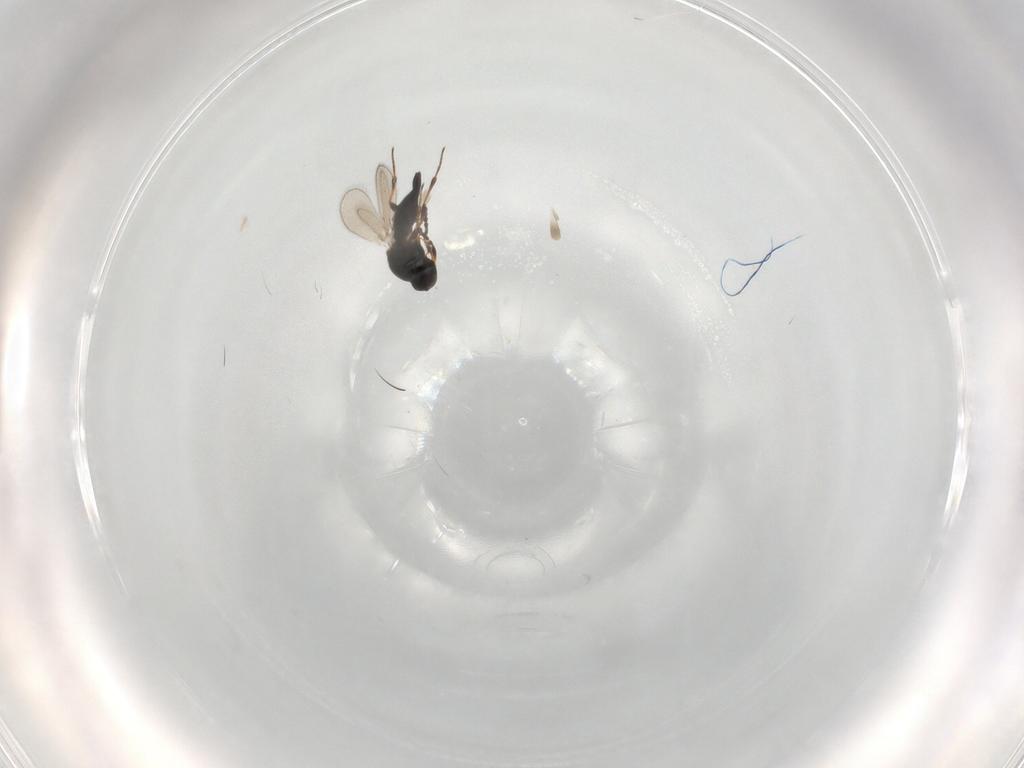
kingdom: Animalia
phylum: Arthropoda
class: Insecta
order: Hymenoptera
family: Platygastridae
